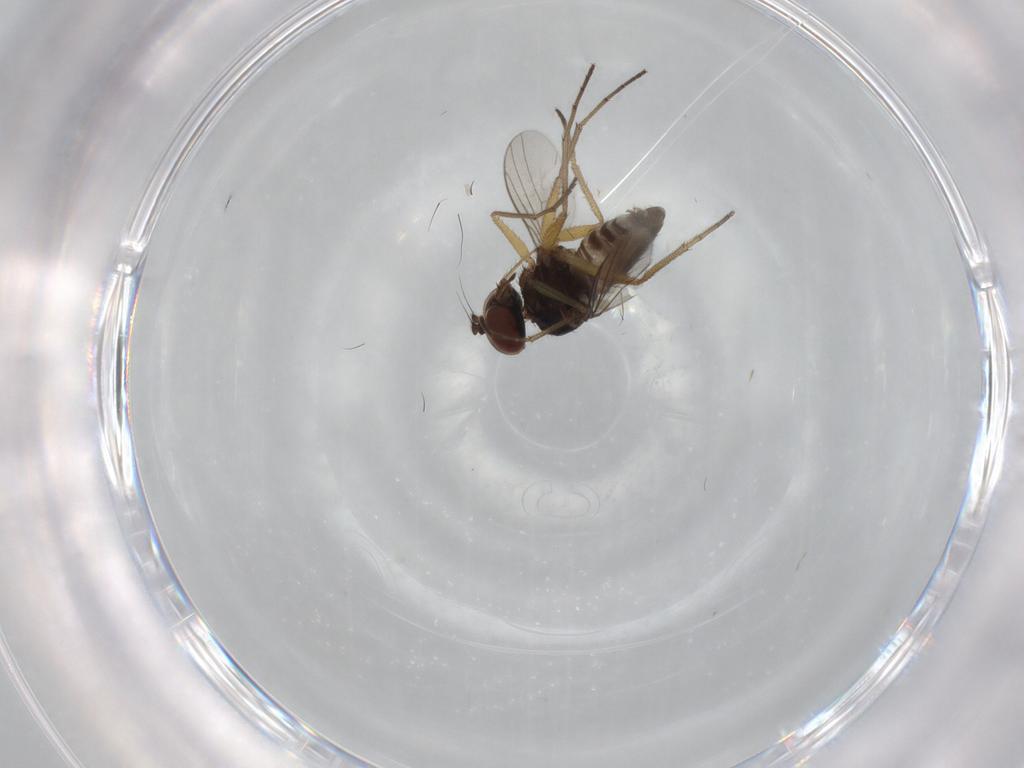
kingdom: Animalia
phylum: Arthropoda
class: Insecta
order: Diptera
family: Dolichopodidae
